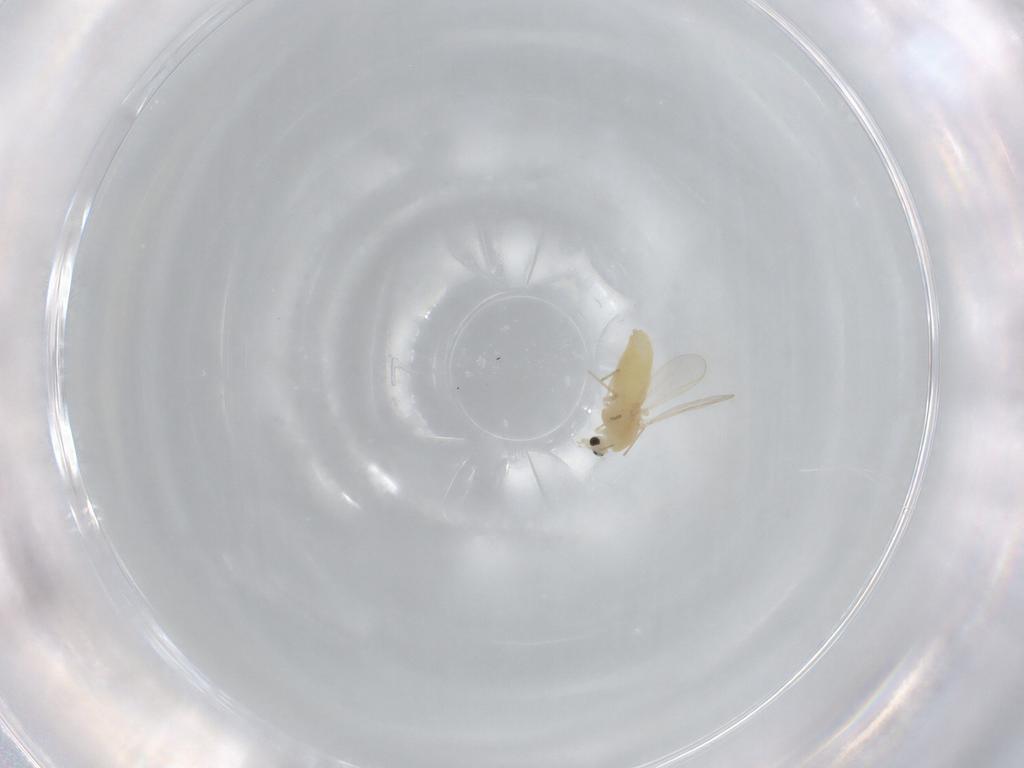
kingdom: Animalia
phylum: Arthropoda
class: Insecta
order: Diptera
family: Chironomidae
